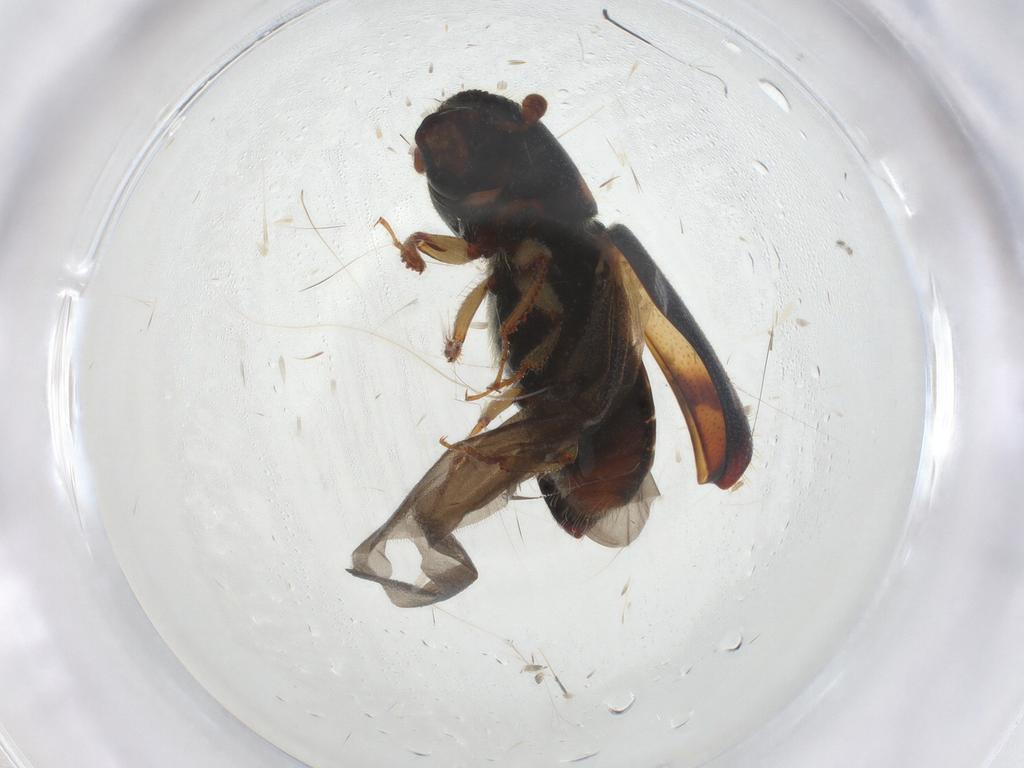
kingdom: Animalia
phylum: Arthropoda
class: Insecta
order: Coleoptera
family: Curculionidae
